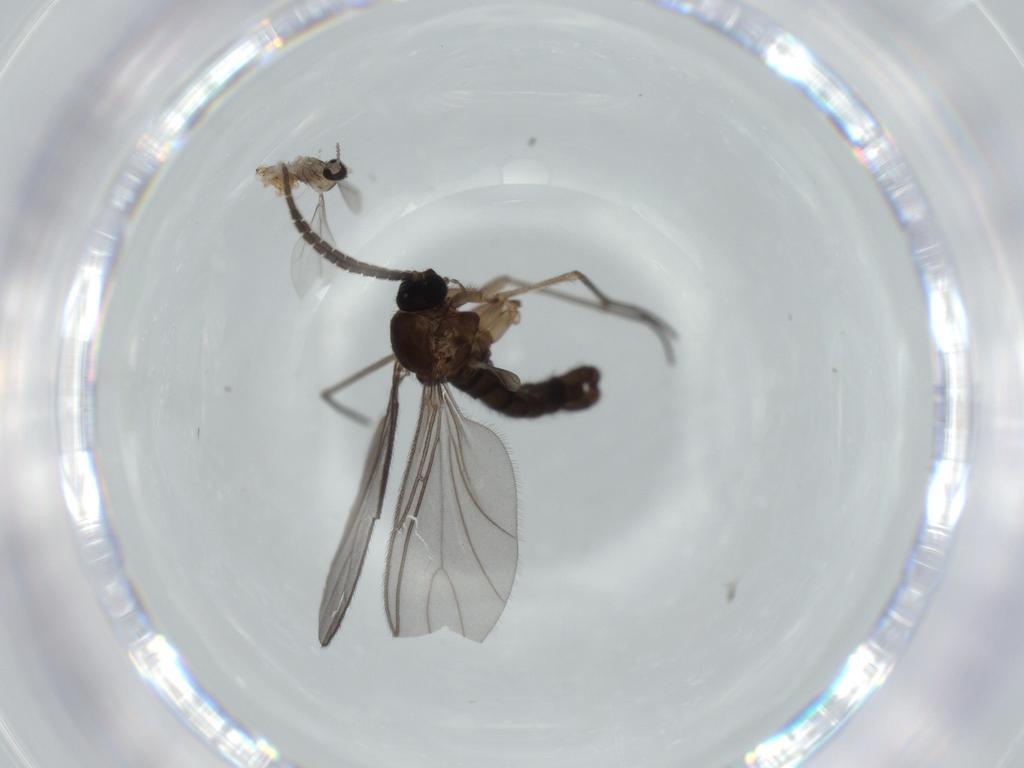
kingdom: Animalia
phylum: Arthropoda
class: Insecta
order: Diptera
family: Sciaridae
